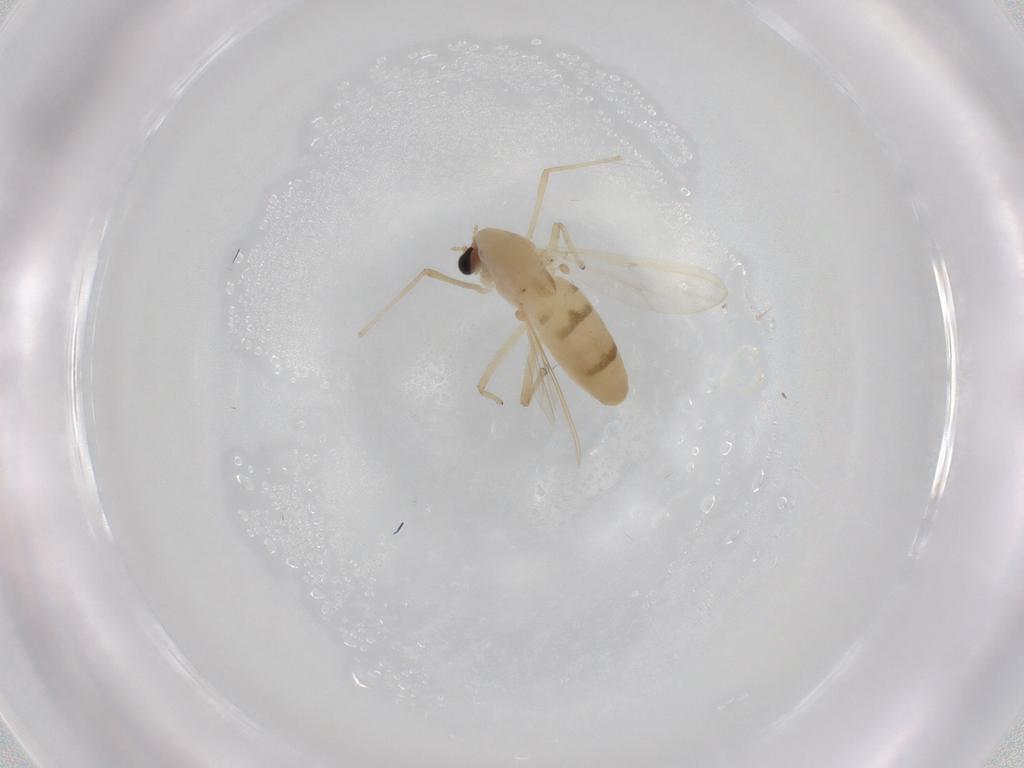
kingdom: Animalia
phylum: Arthropoda
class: Insecta
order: Diptera
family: Chironomidae
